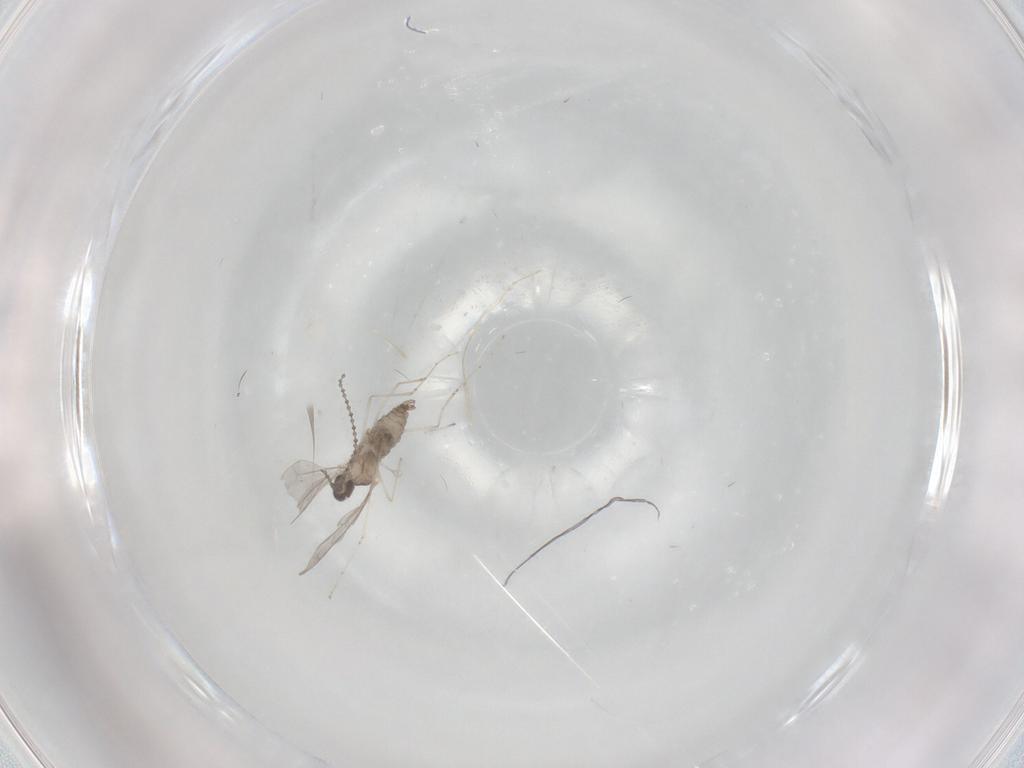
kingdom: Animalia
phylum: Arthropoda
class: Insecta
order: Diptera
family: Cecidomyiidae
